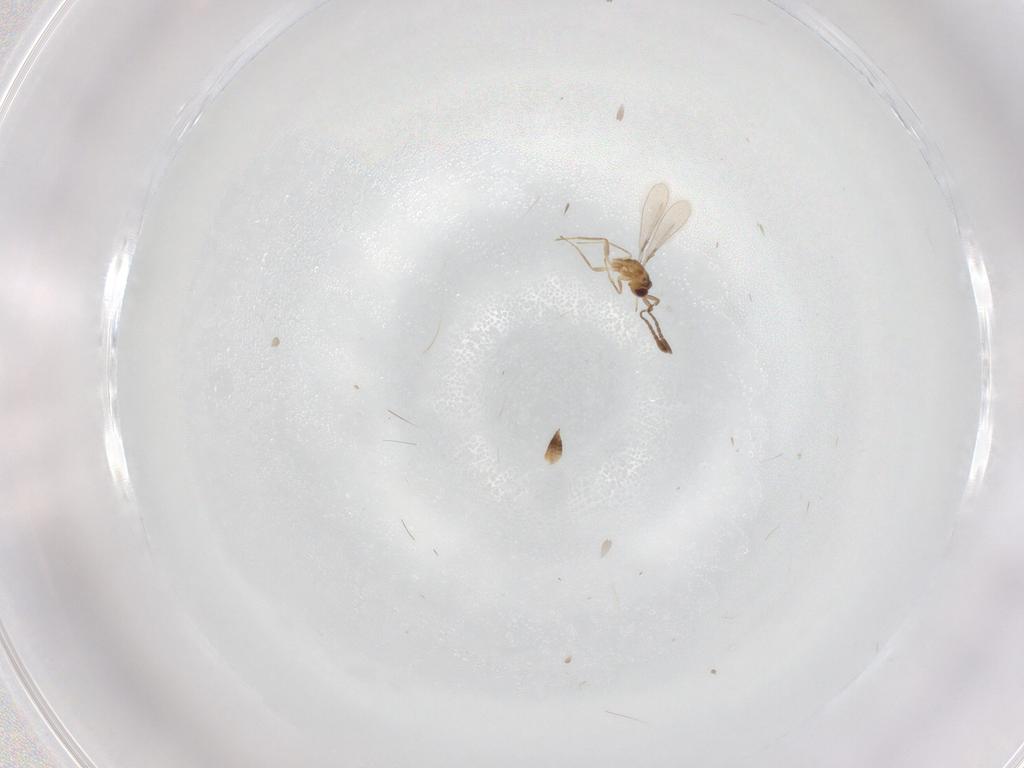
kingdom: Animalia
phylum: Arthropoda
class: Insecta
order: Hymenoptera
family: Mymaridae
